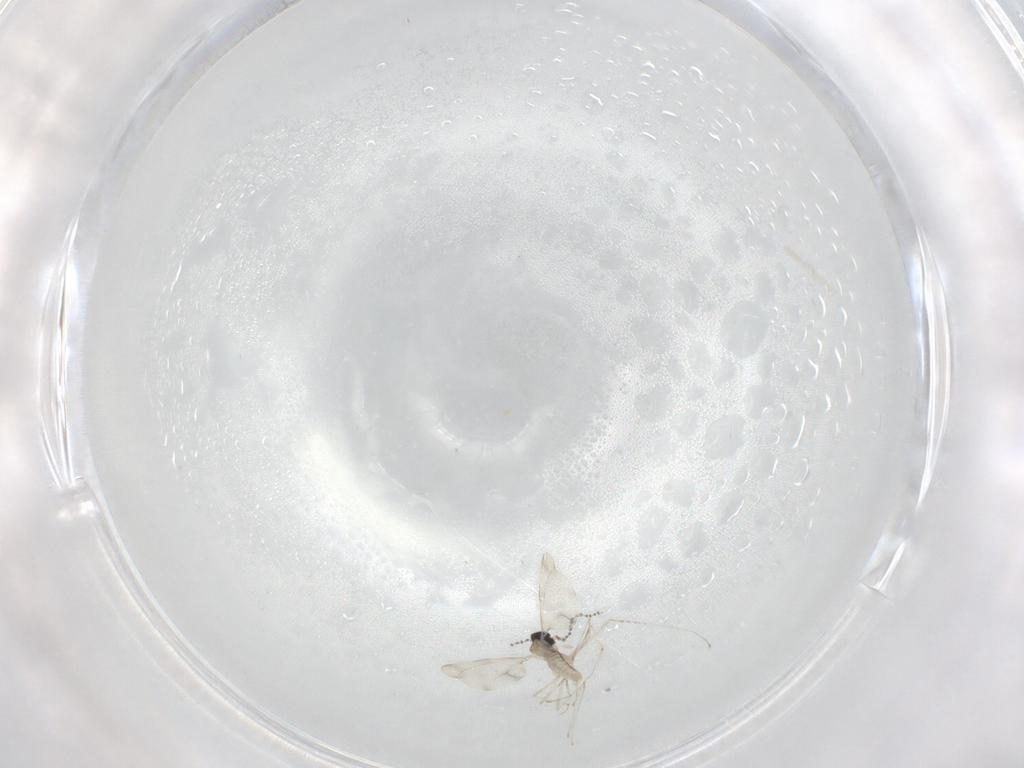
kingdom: Animalia
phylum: Arthropoda
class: Insecta
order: Diptera
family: Cecidomyiidae
